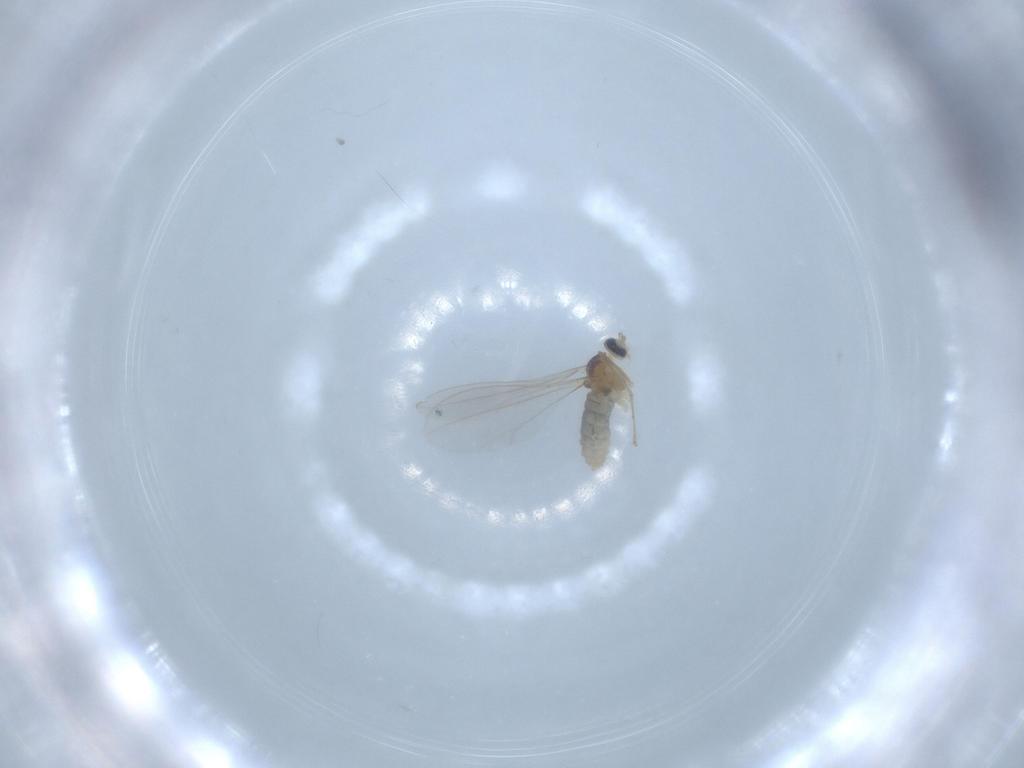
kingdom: Animalia
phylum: Arthropoda
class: Insecta
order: Diptera
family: Cecidomyiidae
